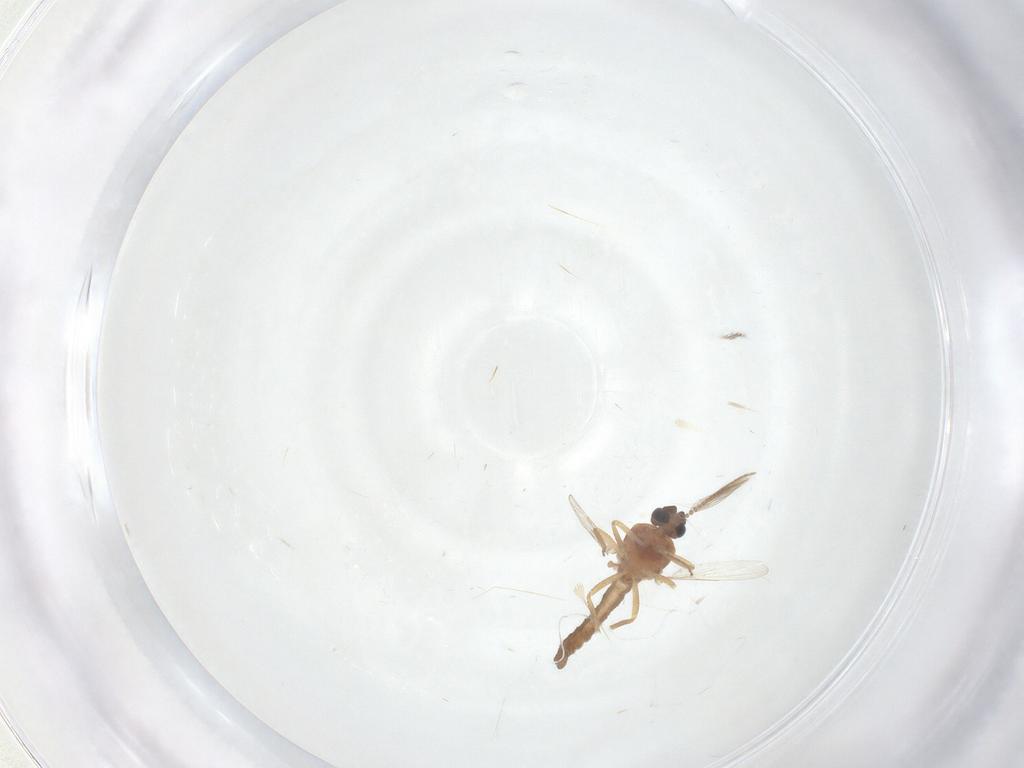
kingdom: Animalia
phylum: Arthropoda
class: Insecta
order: Diptera
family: Ceratopogonidae
